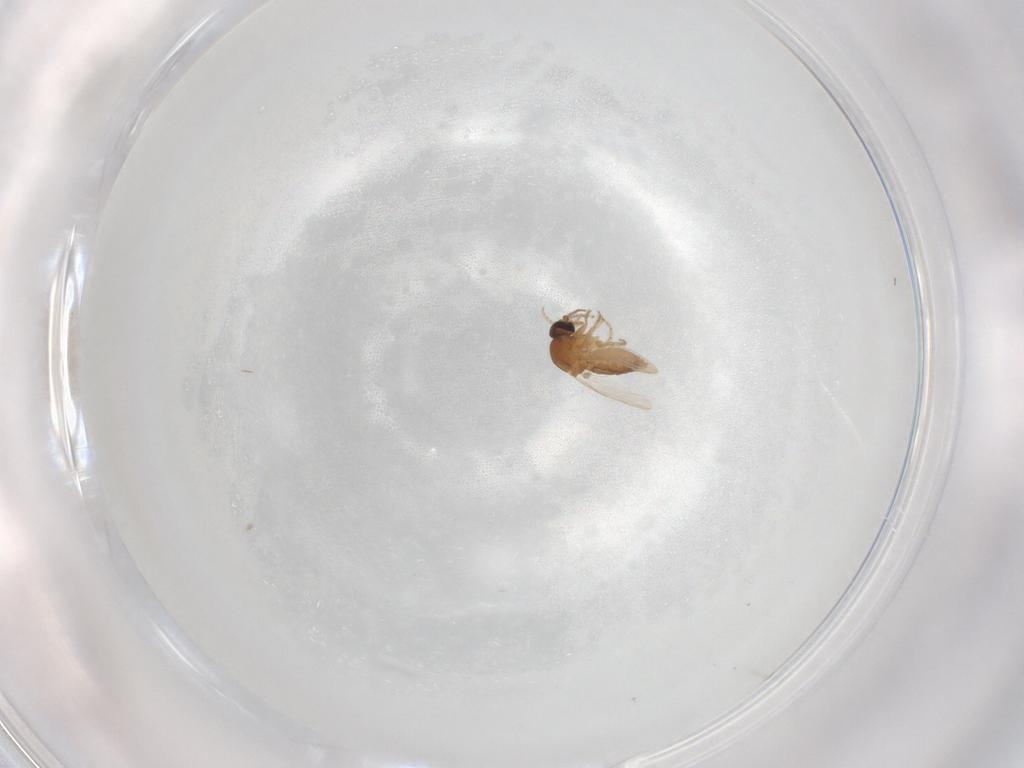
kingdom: Animalia
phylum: Arthropoda
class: Insecta
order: Diptera
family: Ceratopogonidae
